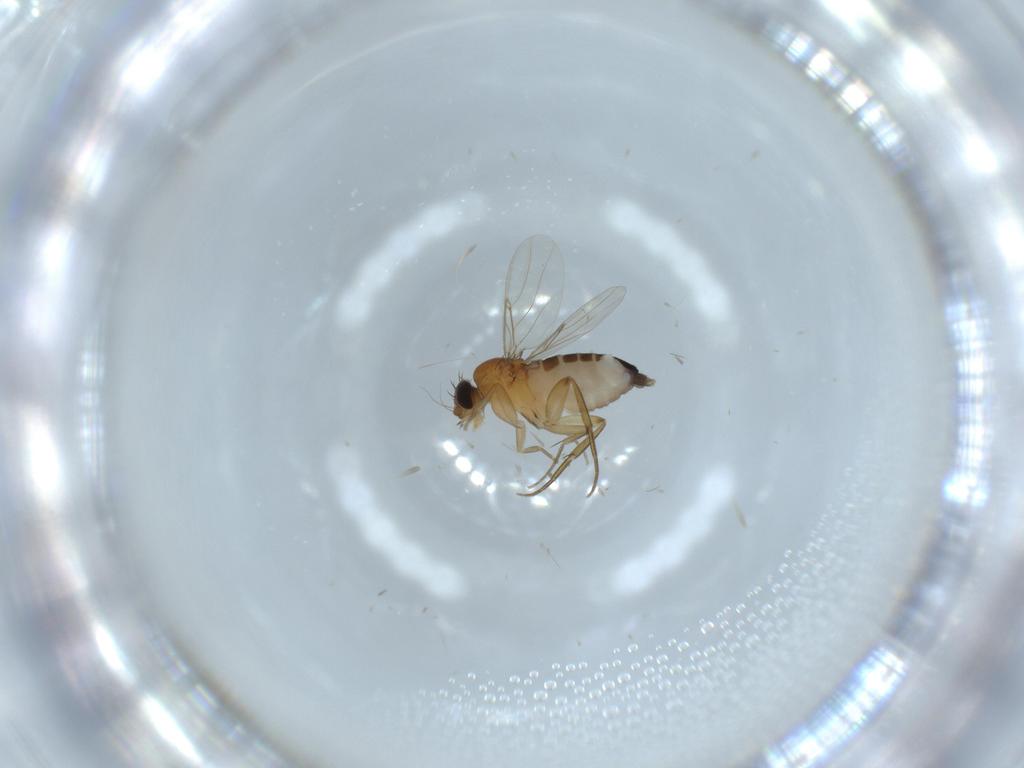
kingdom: Animalia
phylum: Arthropoda
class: Insecta
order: Diptera
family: Phoridae
